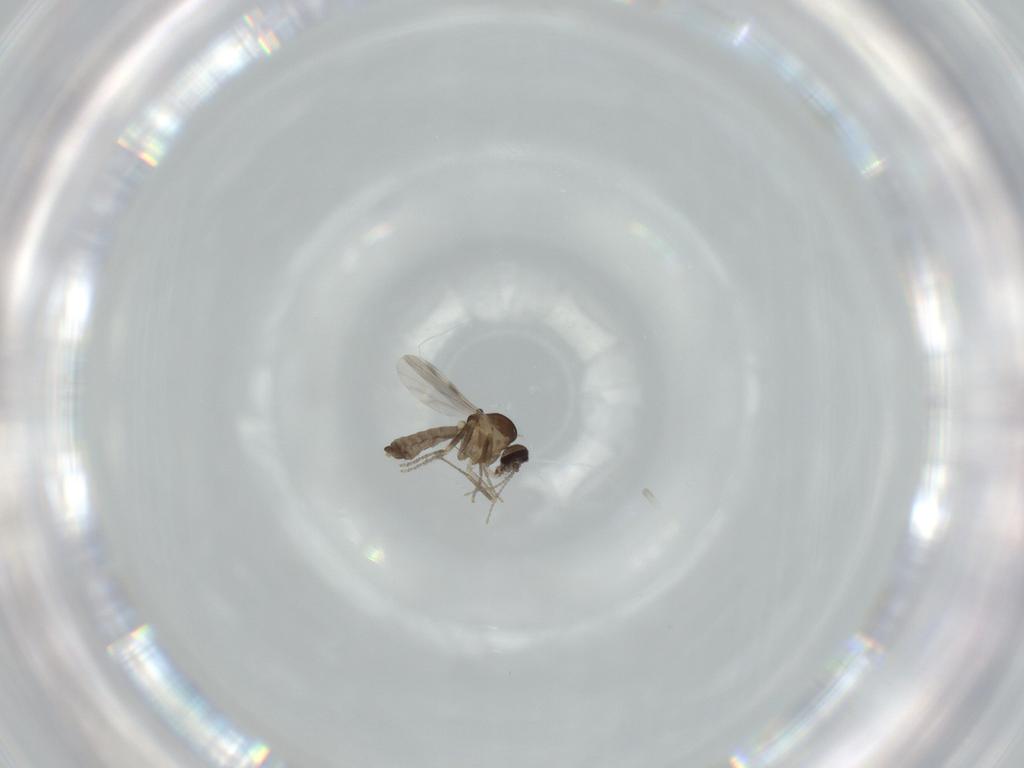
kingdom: Animalia
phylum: Arthropoda
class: Insecta
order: Diptera
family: Ceratopogonidae
